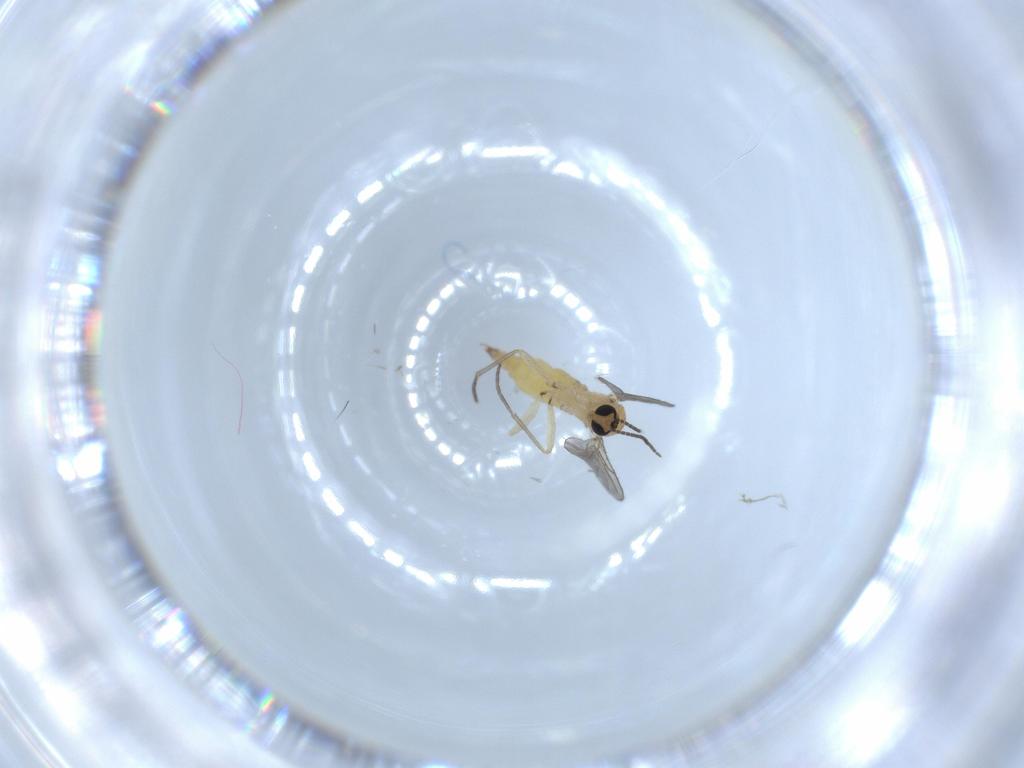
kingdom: Animalia
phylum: Arthropoda
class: Insecta
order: Diptera
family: Sciaridae
